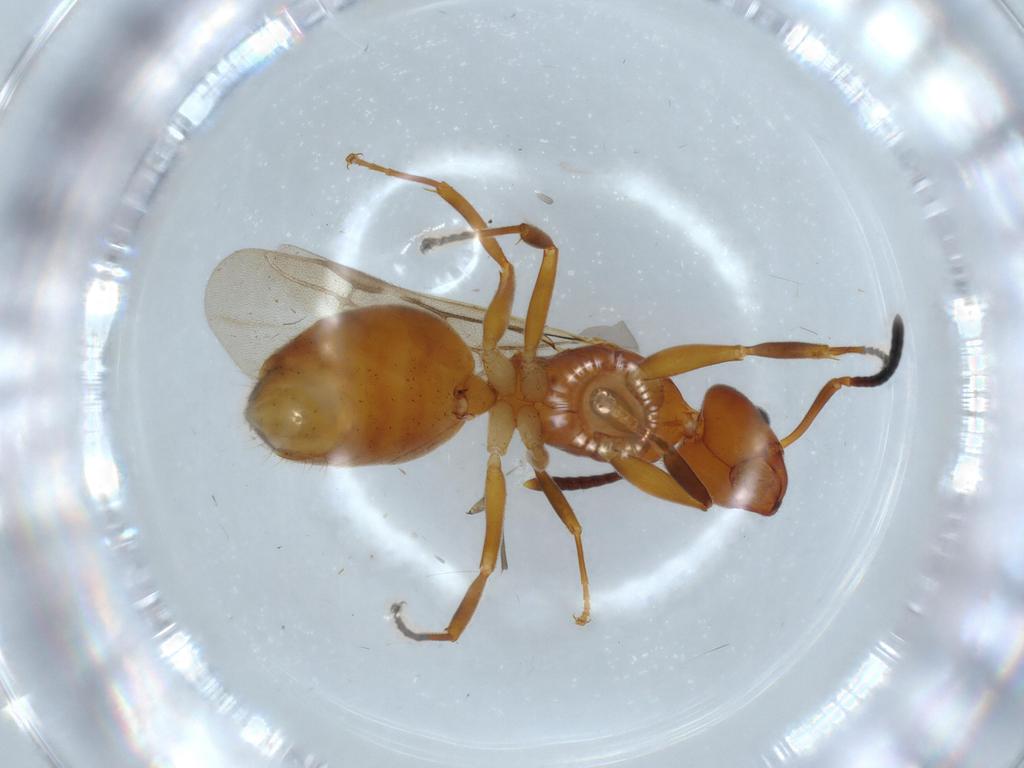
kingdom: Animalia
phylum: Arthropoda
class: Insecta
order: Hymenoptera
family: Formicidae
